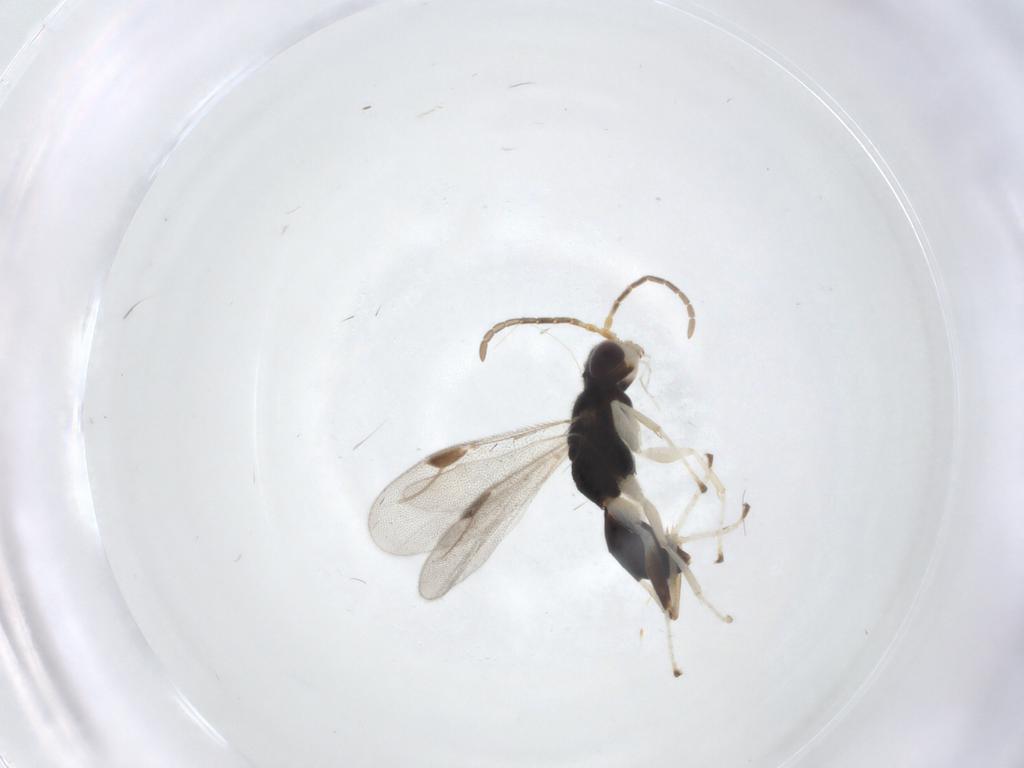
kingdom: Animalia
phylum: Arthropoda
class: Insecta
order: Hymenoptera
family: Dryinidae
